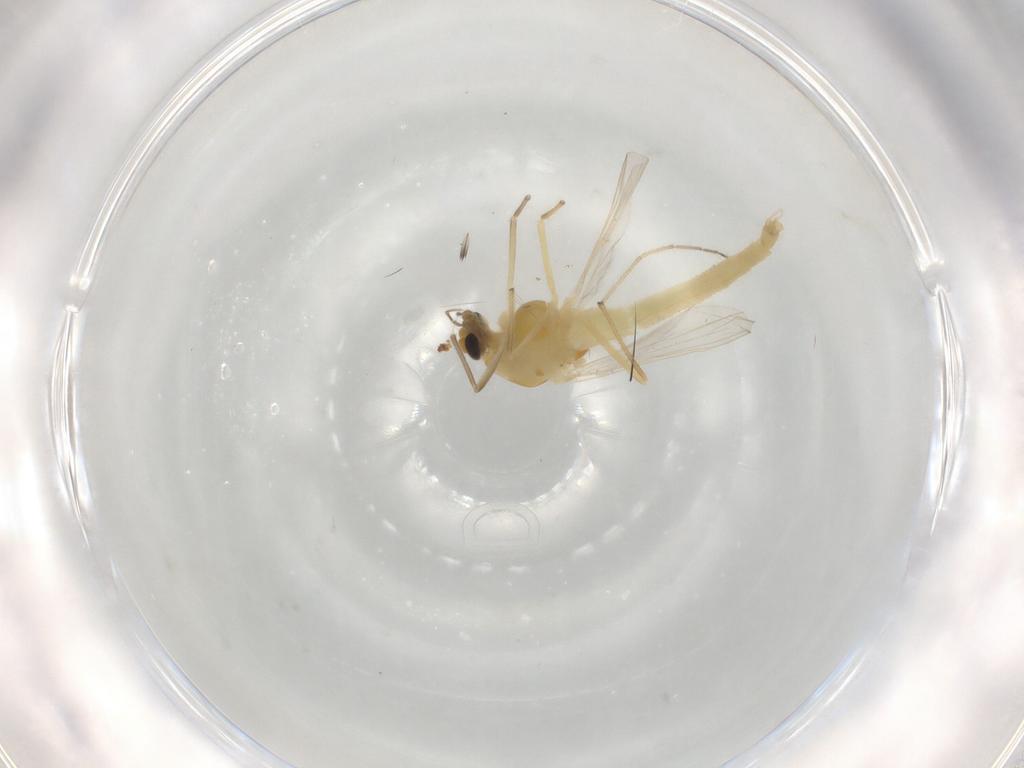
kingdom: Animalia
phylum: Arthropoda
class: Insecta
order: Diptera
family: Chironomidae
